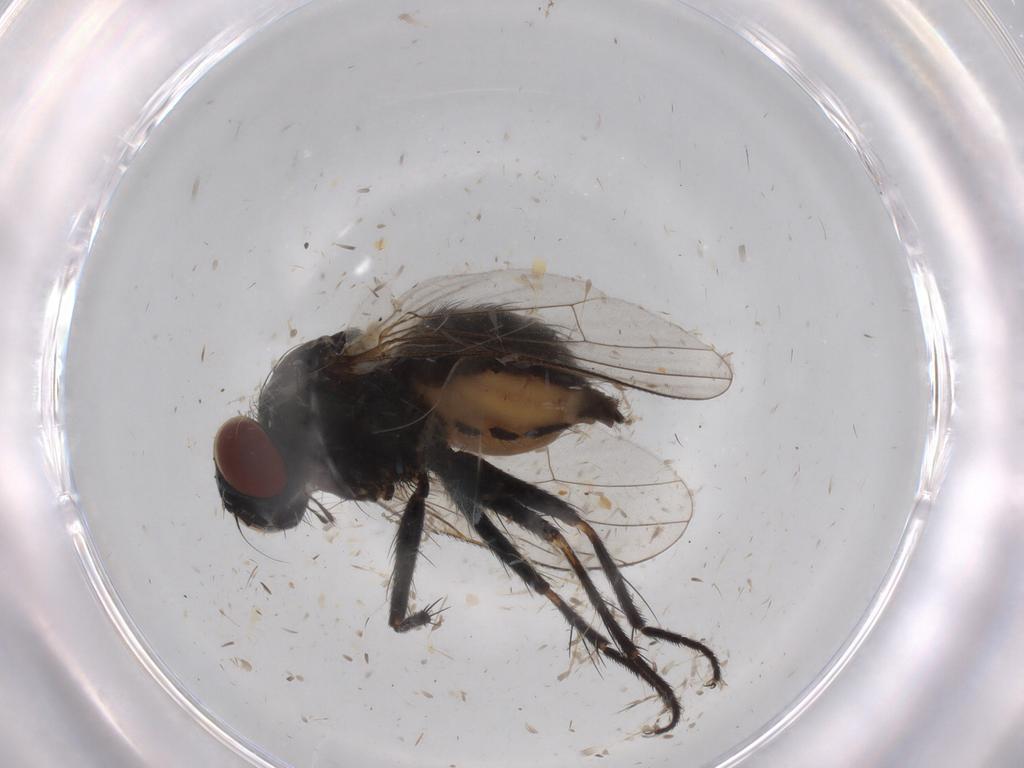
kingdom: Animalia
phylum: Arthropoda
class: Insecta
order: Diptera
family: Muscidae
